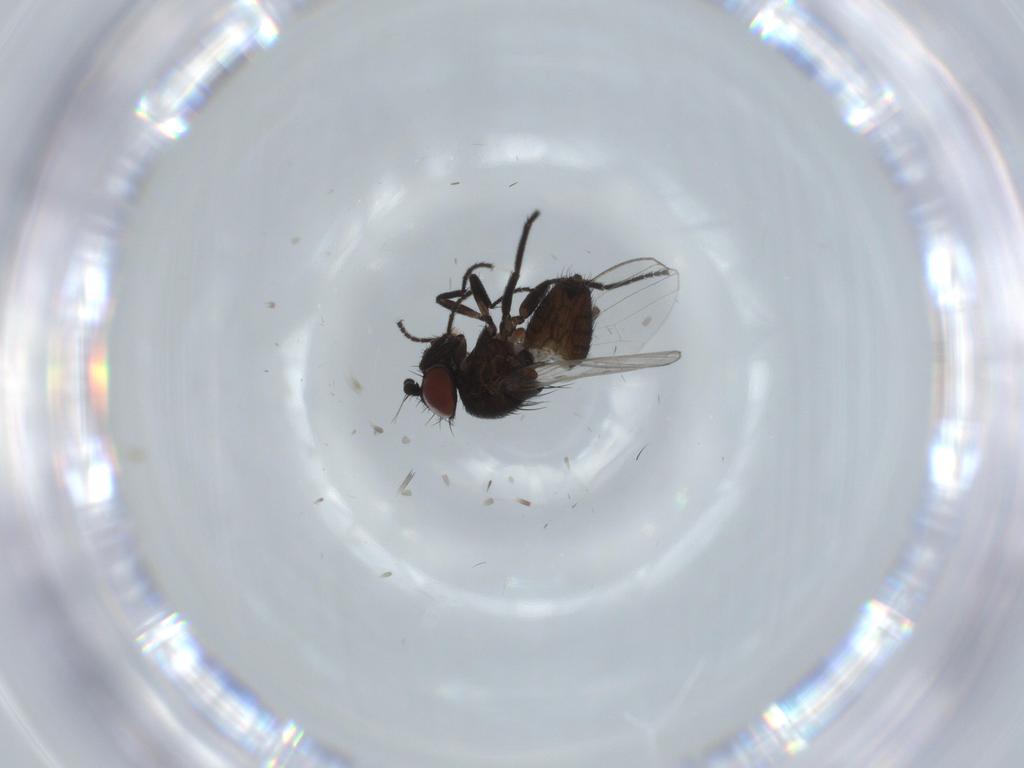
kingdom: Animalia
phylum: Arthropoda
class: Insecta
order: Diptera
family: Milichiidae
